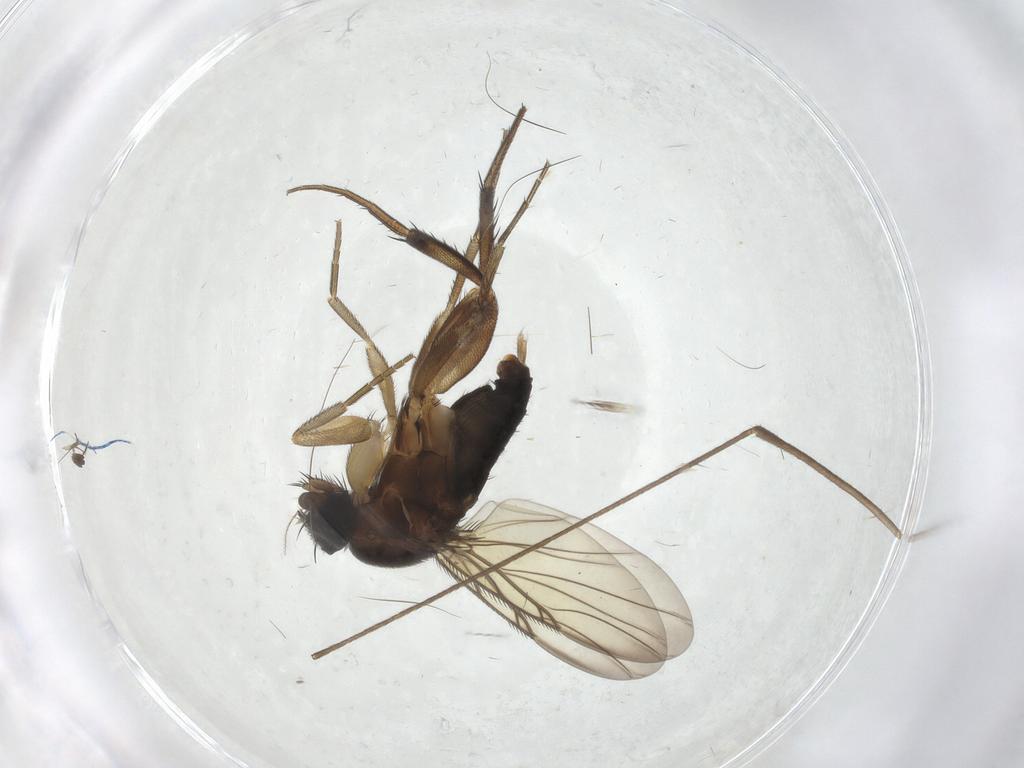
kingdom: Animalia
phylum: Arthropoda
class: Insecta
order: Diptera
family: Phoridae
